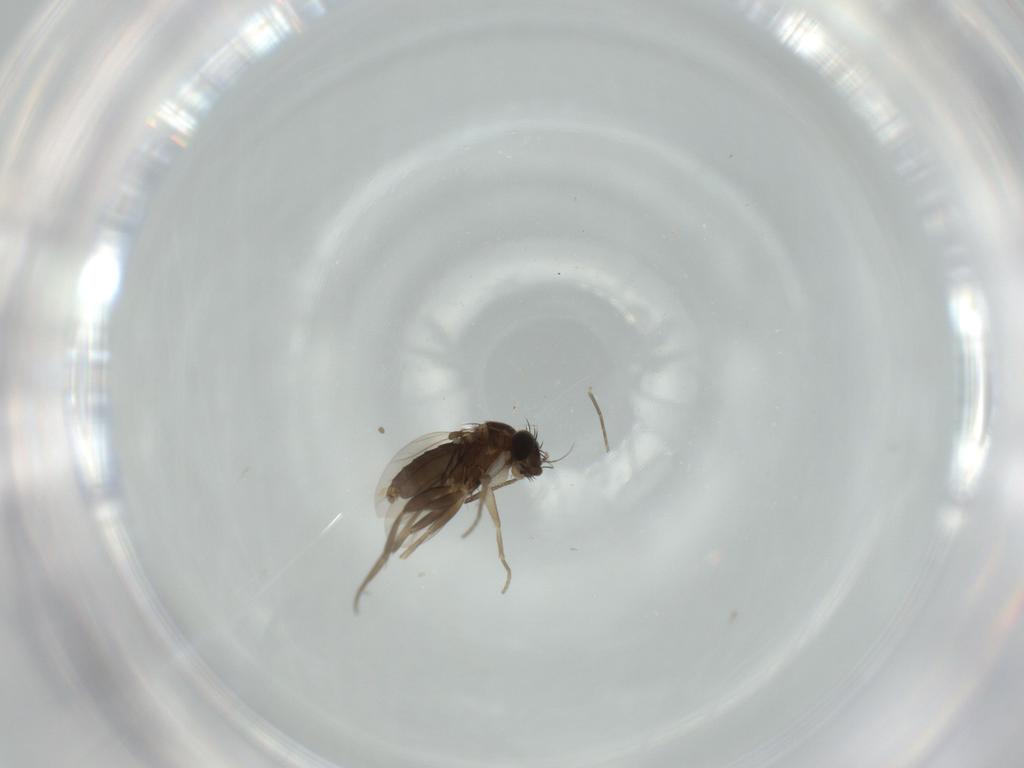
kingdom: Animalia
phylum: Arthropoda
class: Insecta
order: Diptera
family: Phoridae
